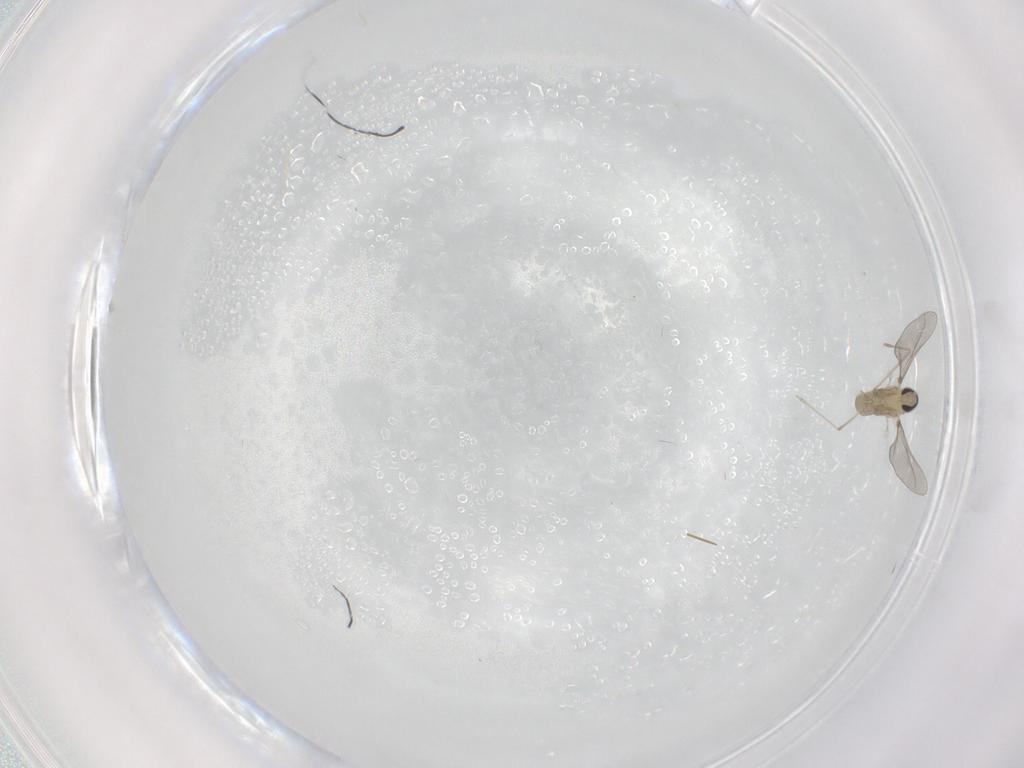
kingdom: Animalia
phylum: Arthropoda
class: Insecta
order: Diptera
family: Cecidomyiidae
